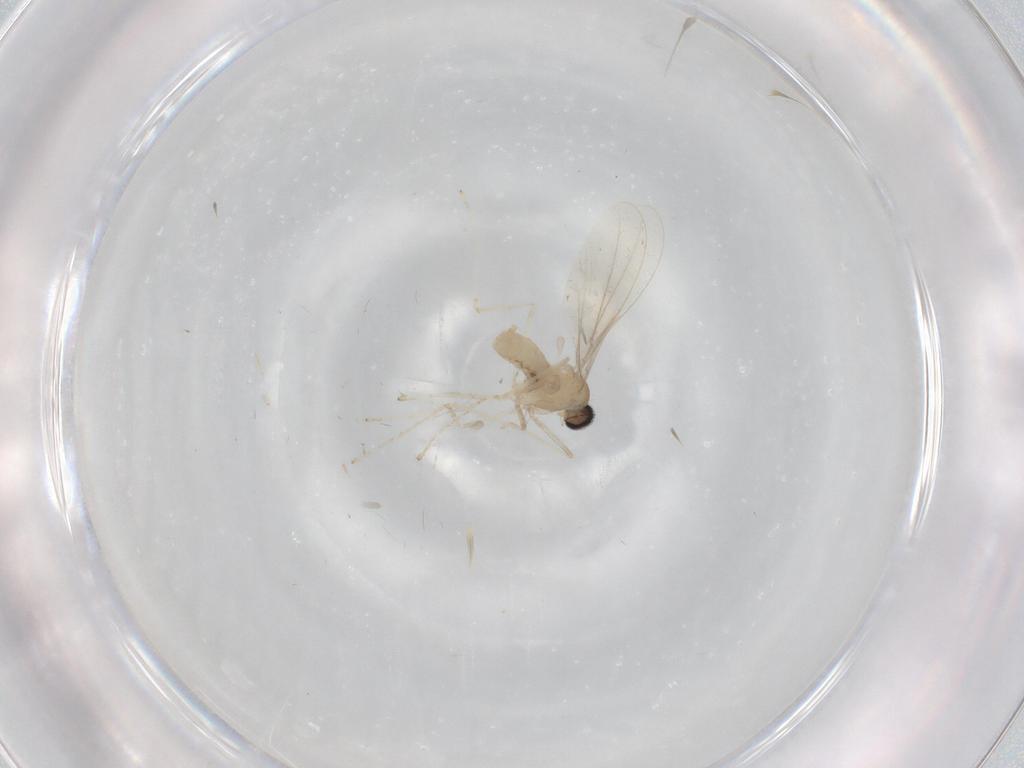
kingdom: Animalia
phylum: Arthropoda
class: Insecta
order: Diptera
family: Cecidomyiidae
